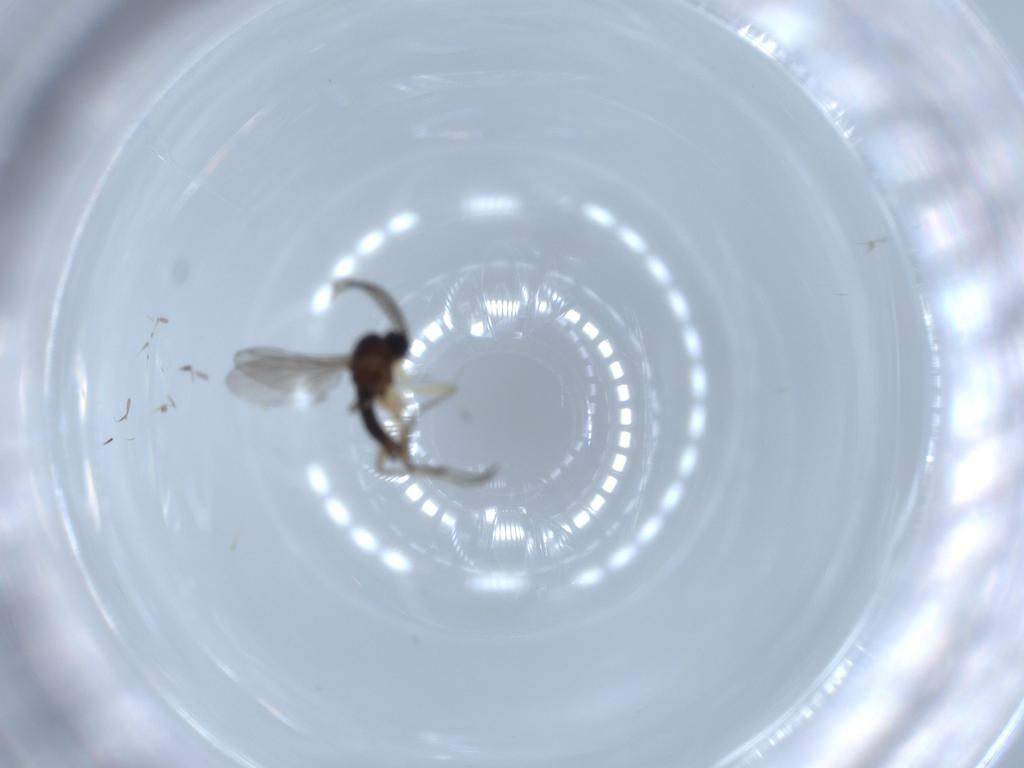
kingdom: Animalia
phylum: Arthropoda
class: Insecta
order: Diptera
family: Sciaridae
